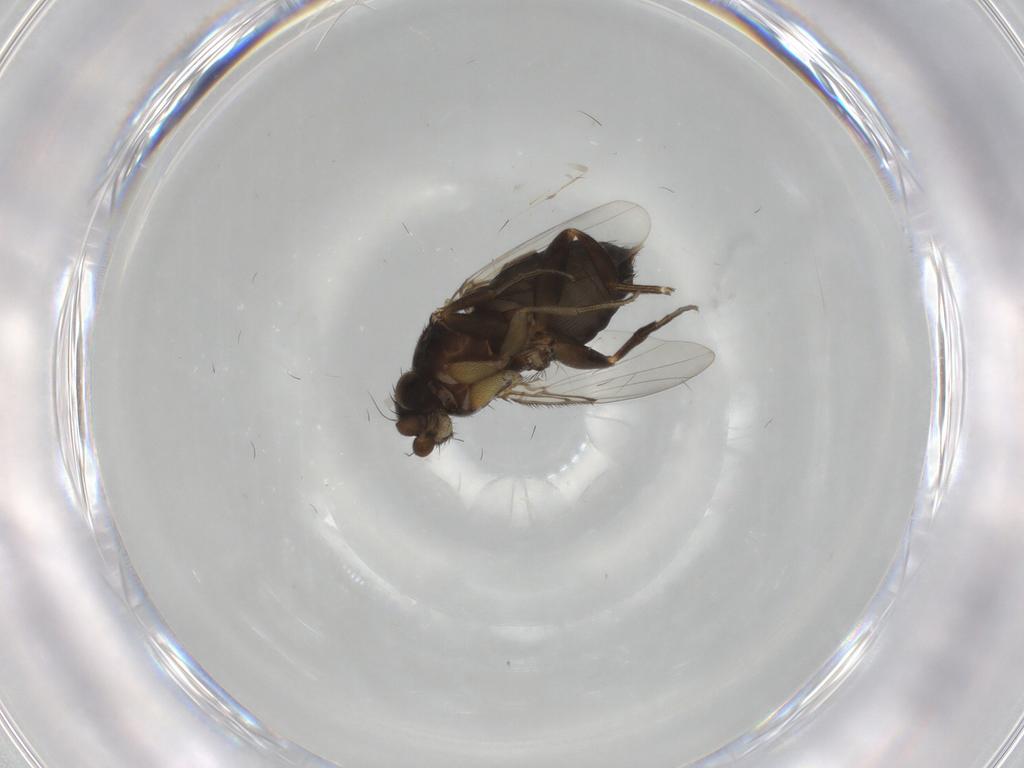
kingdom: Animalia
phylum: Arthropoda
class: Insecta
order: Diptera
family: Phoridae
